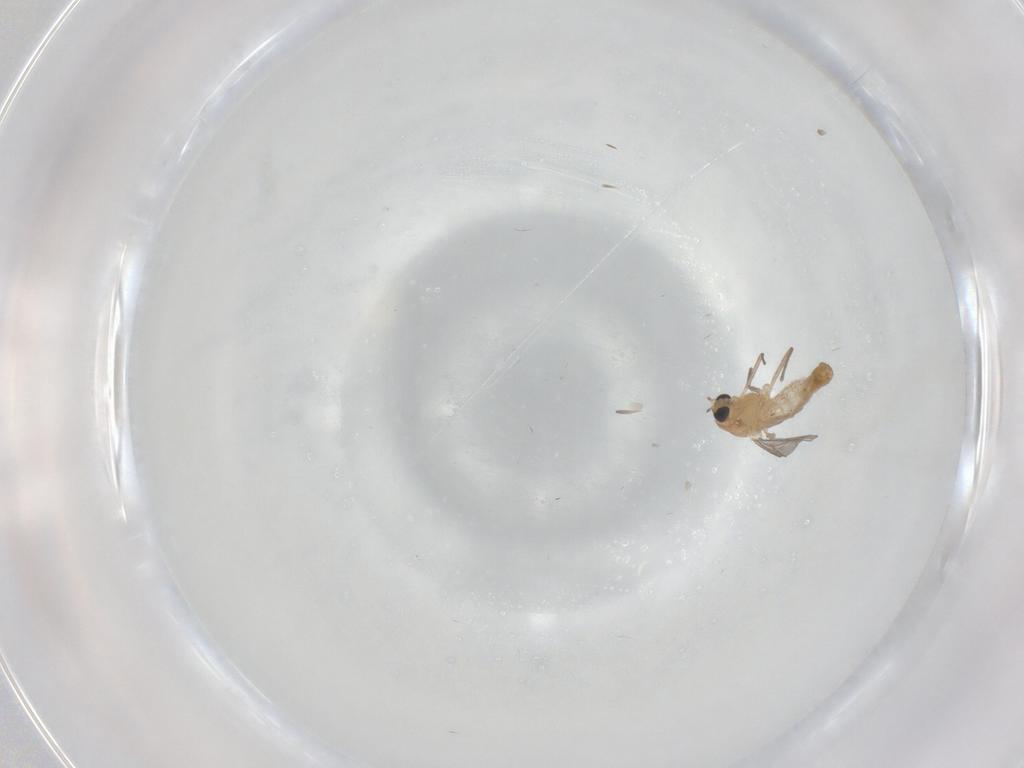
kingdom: Animalia
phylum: Arthropoda
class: Insecta
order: Diptera
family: Chironomidae
